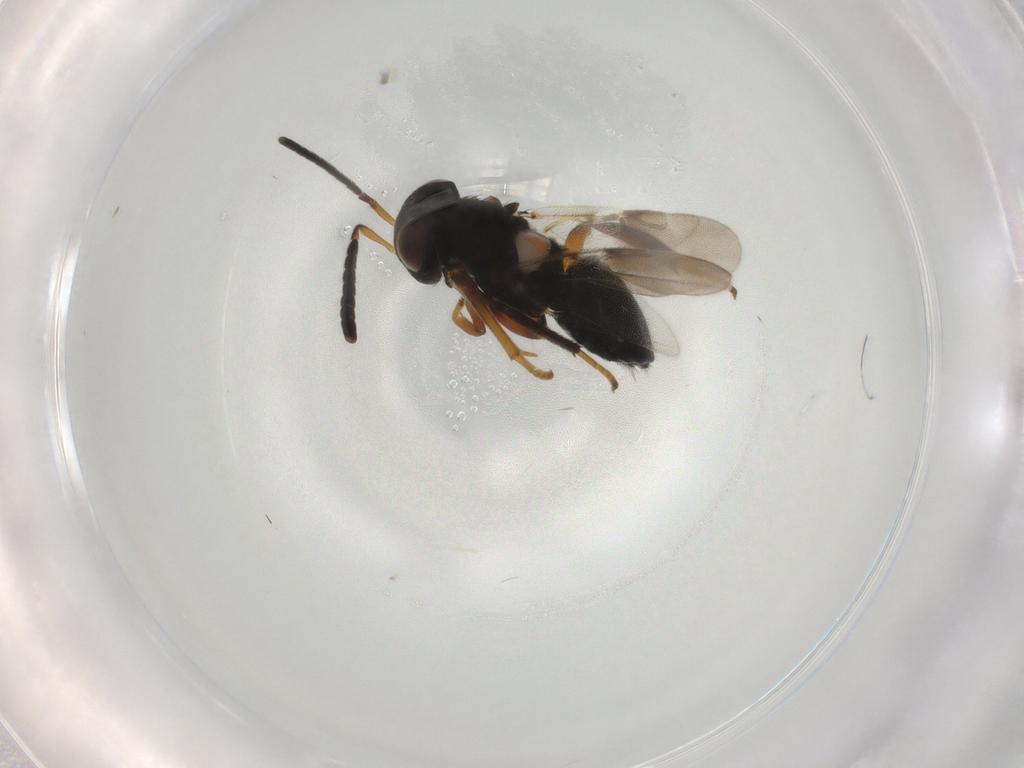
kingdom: Animalia
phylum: Arthropoda
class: Insecta
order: Hymenoptera
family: Encyrtidae
